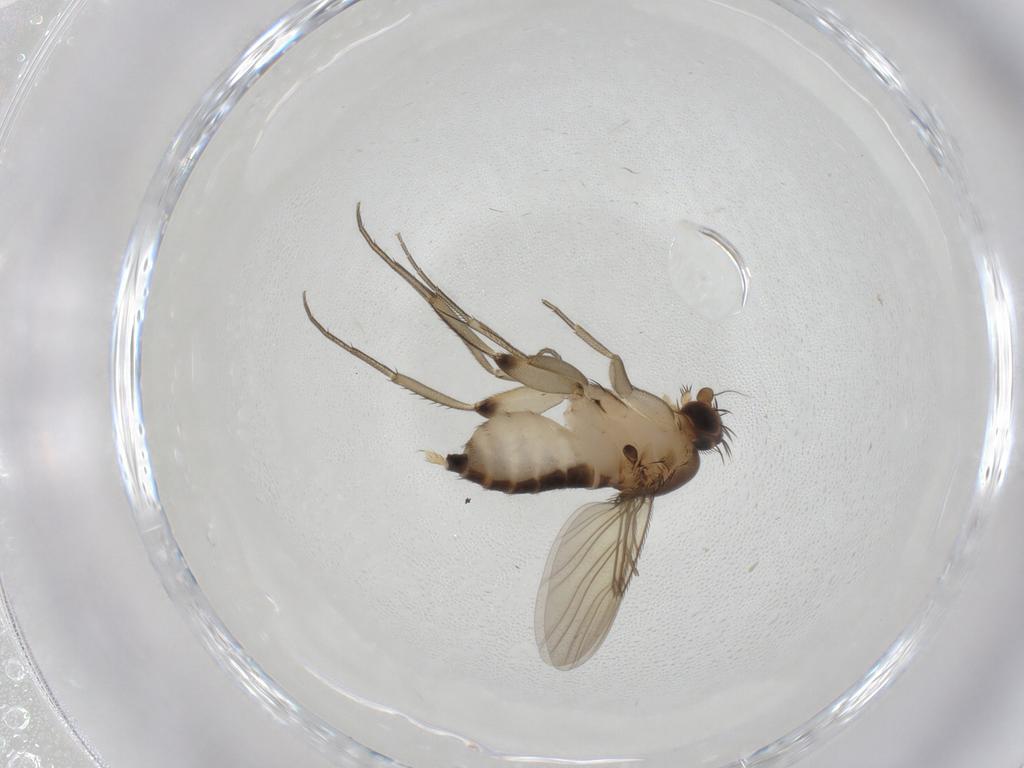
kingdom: Animalia
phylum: Arthropoda
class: Insecta
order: Diptera
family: Phoridae
